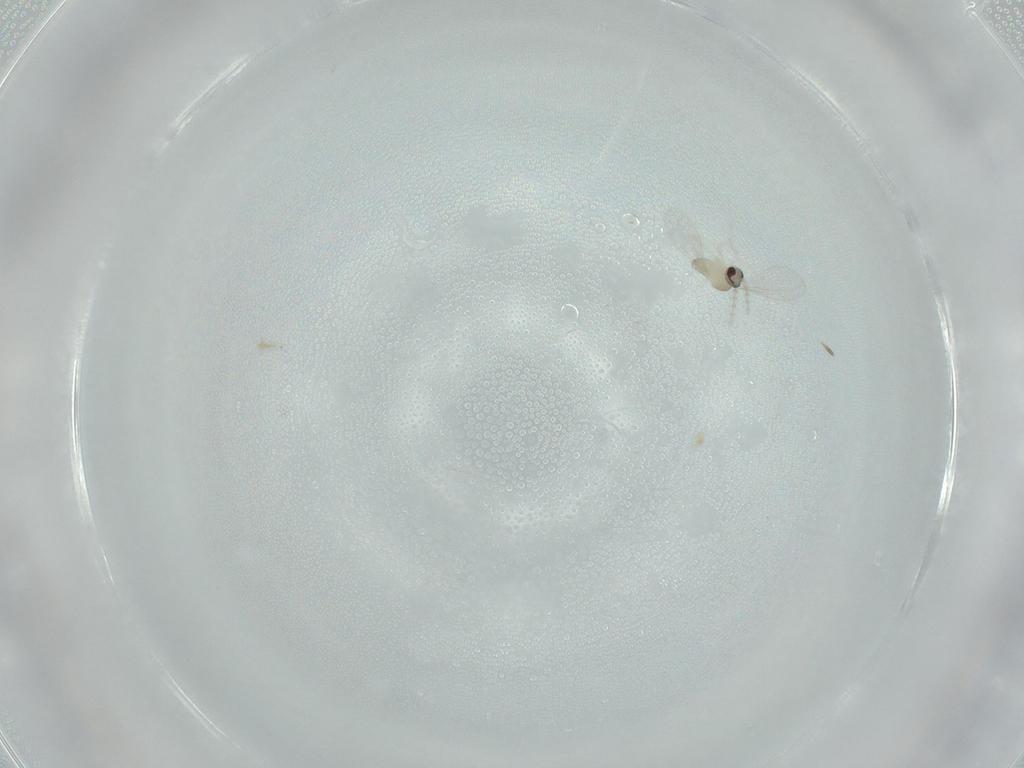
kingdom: Animalia
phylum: Arthropoda
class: Insecta
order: Diptera
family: Cecidomyiidae
